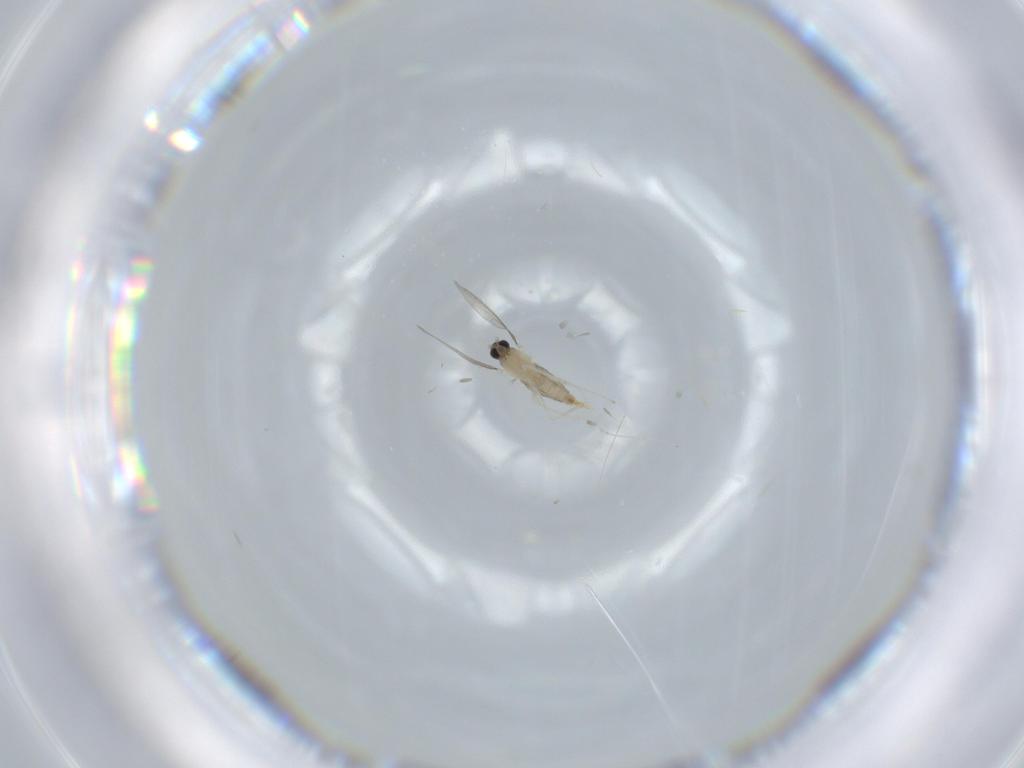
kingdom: Animalia
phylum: Arthropoda
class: Insecta
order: Diptera
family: Cecidomyiidae
